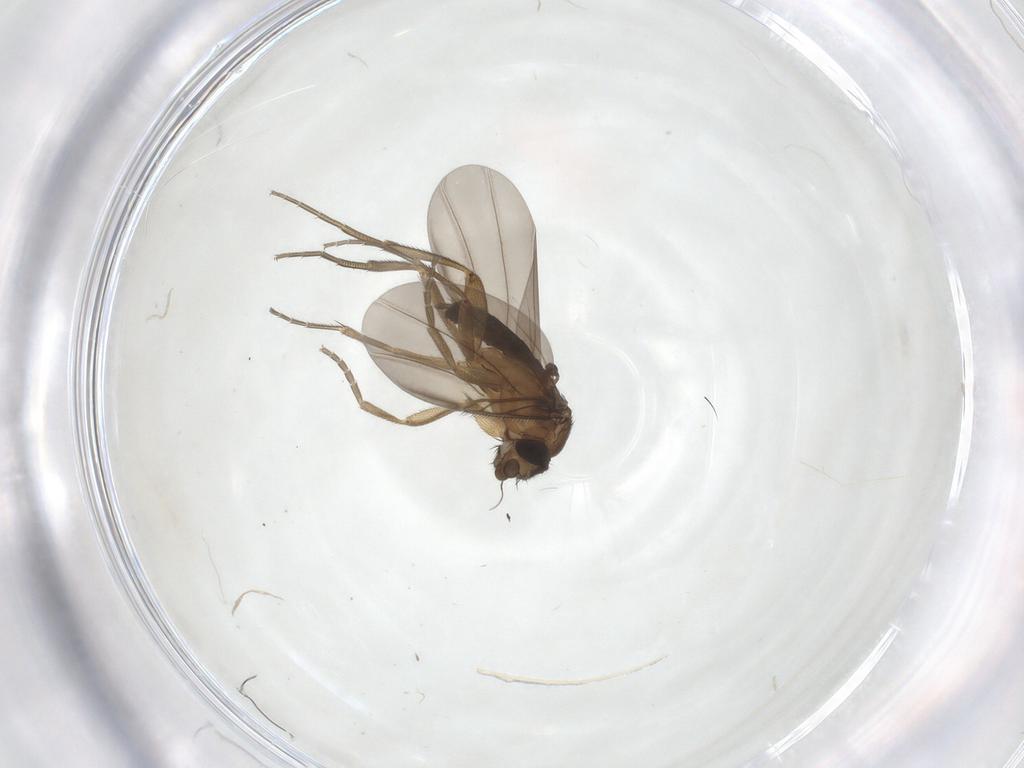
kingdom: Animalia
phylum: Arthropoda
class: Insecta
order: Diptera
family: Phoridae
